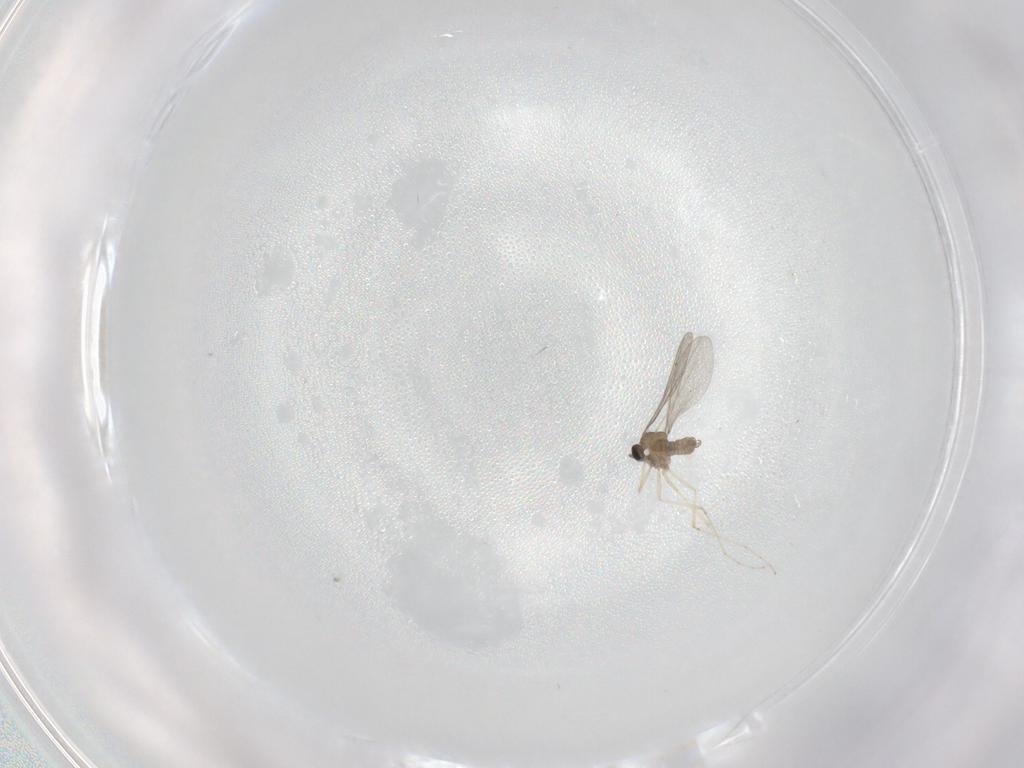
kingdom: Animalia
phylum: Arthropoda
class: Insecta
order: Diptera
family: Cecidomyiidae
